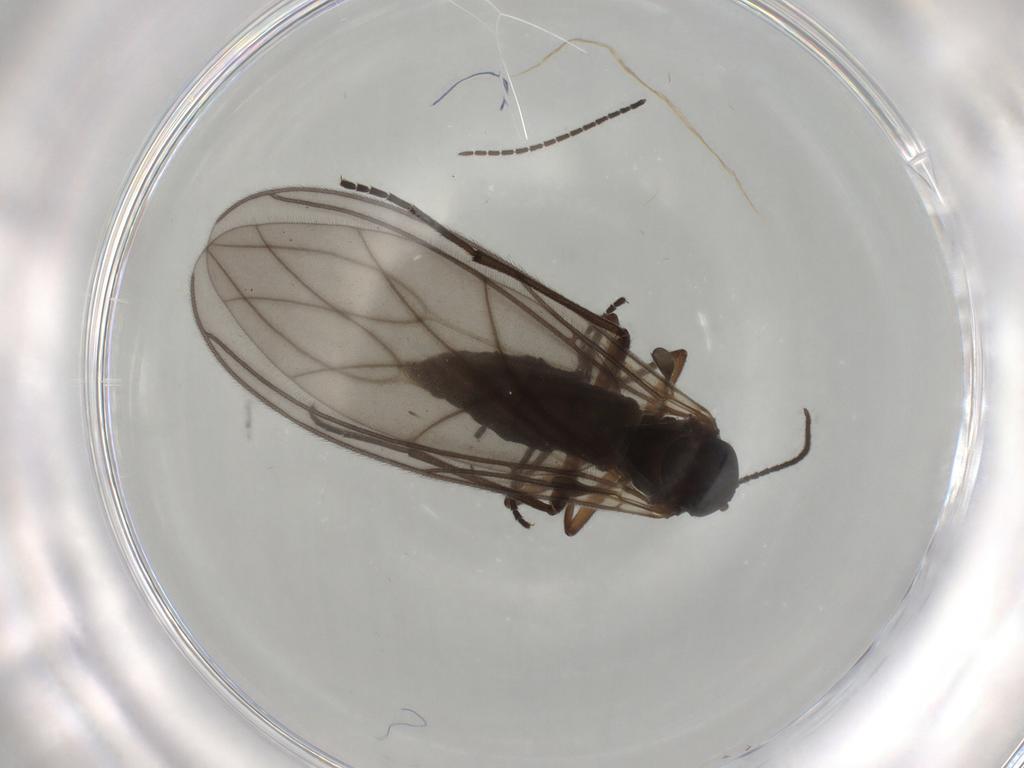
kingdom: Animalia
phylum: Arthropoda
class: Insecta
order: Diptera
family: Sciaridae
